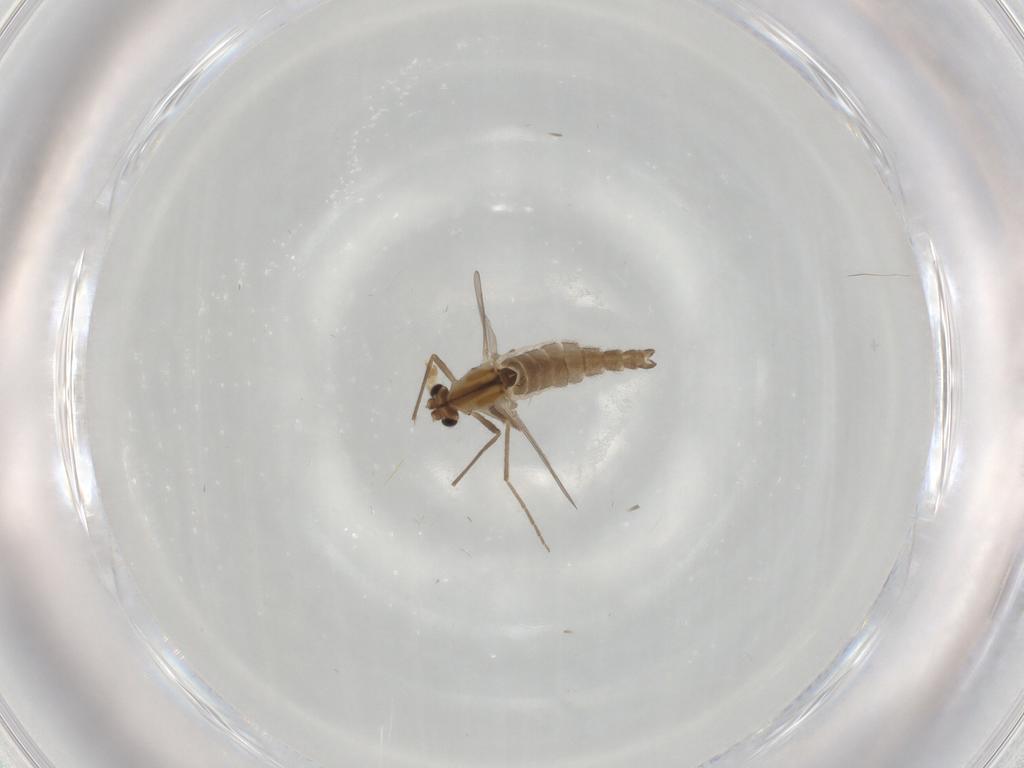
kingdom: Animalia
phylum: Arthropoda
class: Insecta
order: Diptera
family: Chironomidae
